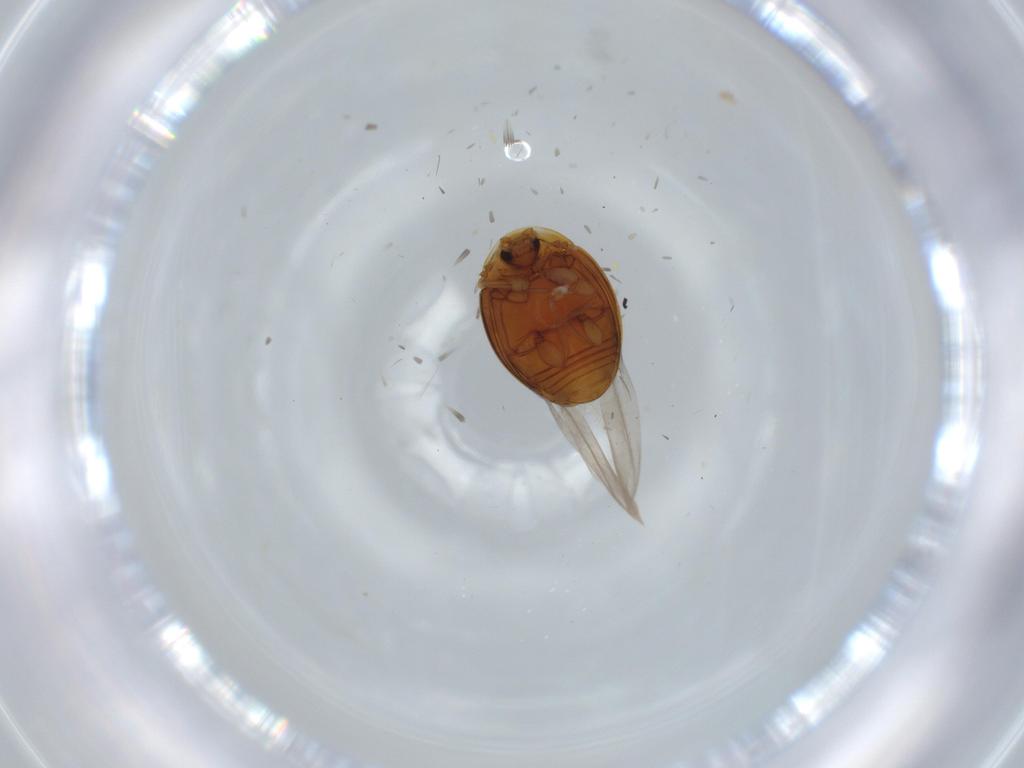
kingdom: Animalia
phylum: Arthropoda
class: Insecta
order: Coleoptera
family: Corylophidae
